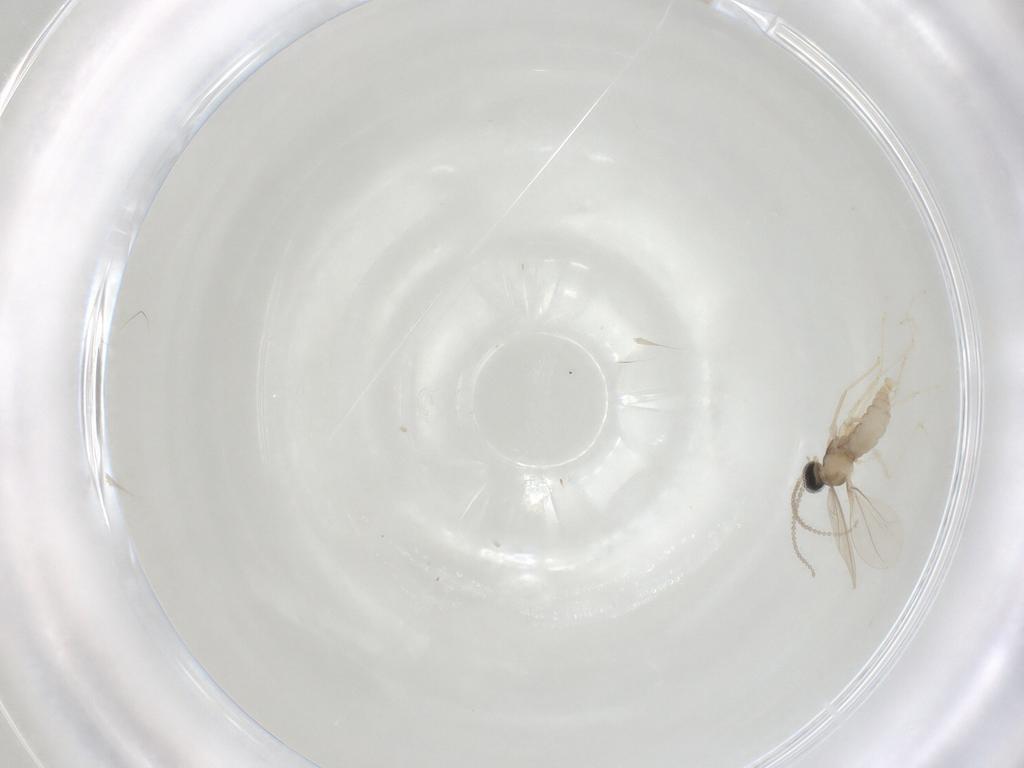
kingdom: Animalia
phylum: Arthropoda
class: Insecta
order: Diptera
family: Cecidomyiidae
